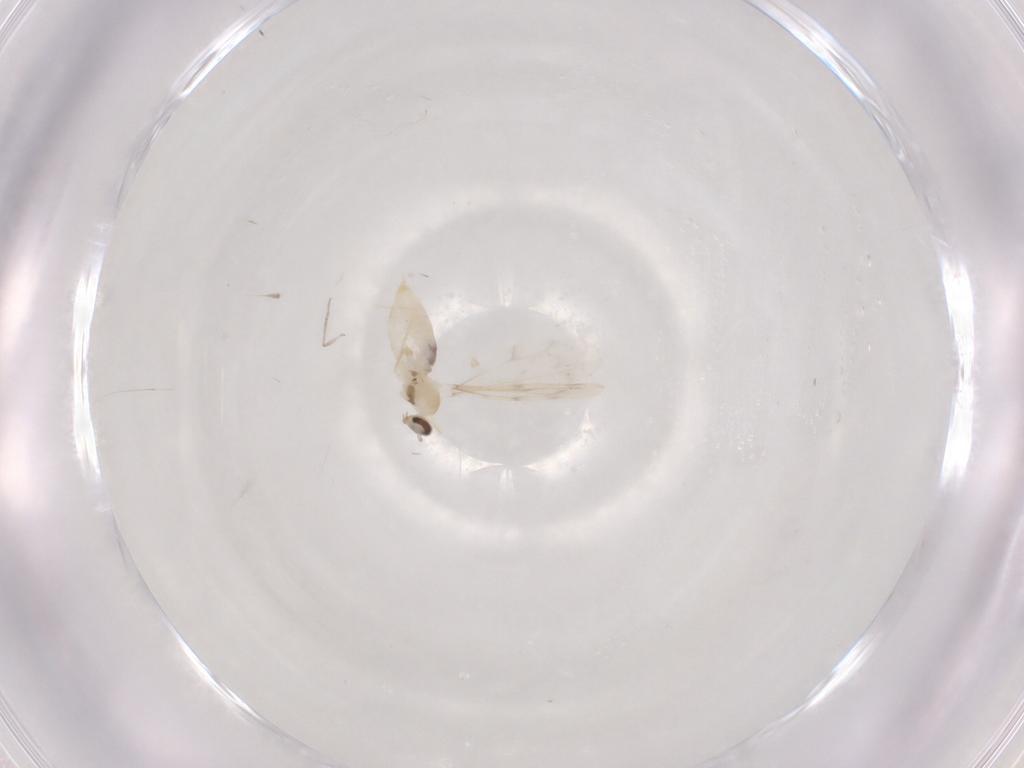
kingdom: Animalia
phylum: Arthropoda
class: Insecta
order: Diptera
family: Cecidomyiidae
